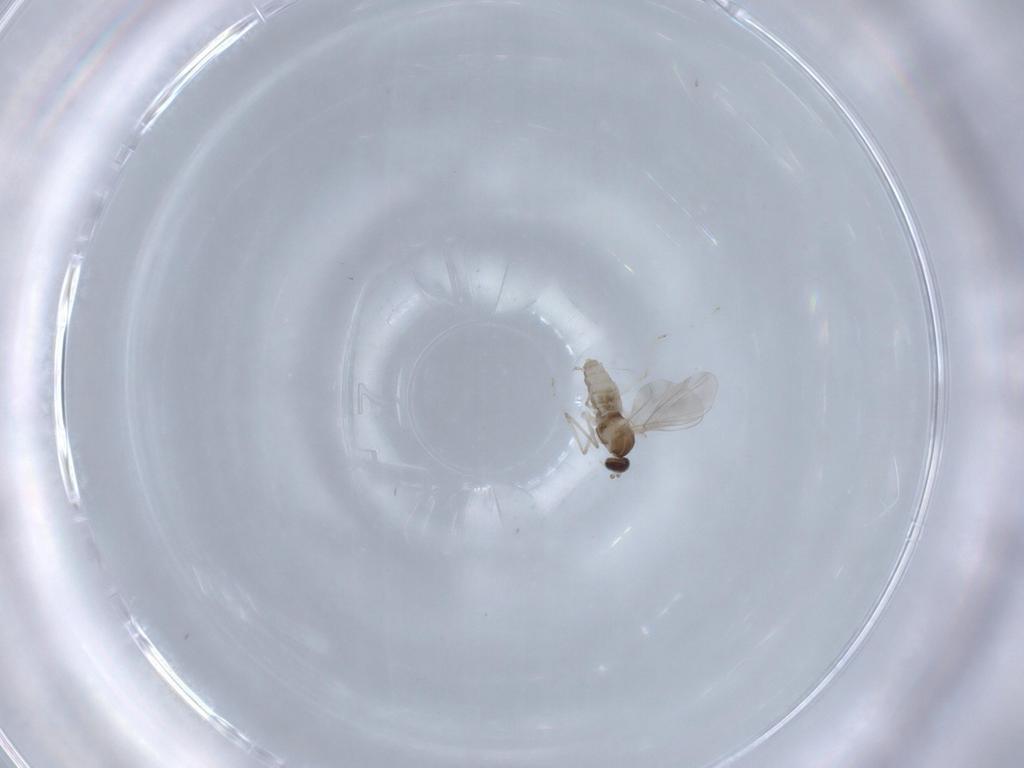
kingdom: Animalia
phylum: Arthropoda
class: Insecta
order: Diptera
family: Cecidomyiidae
